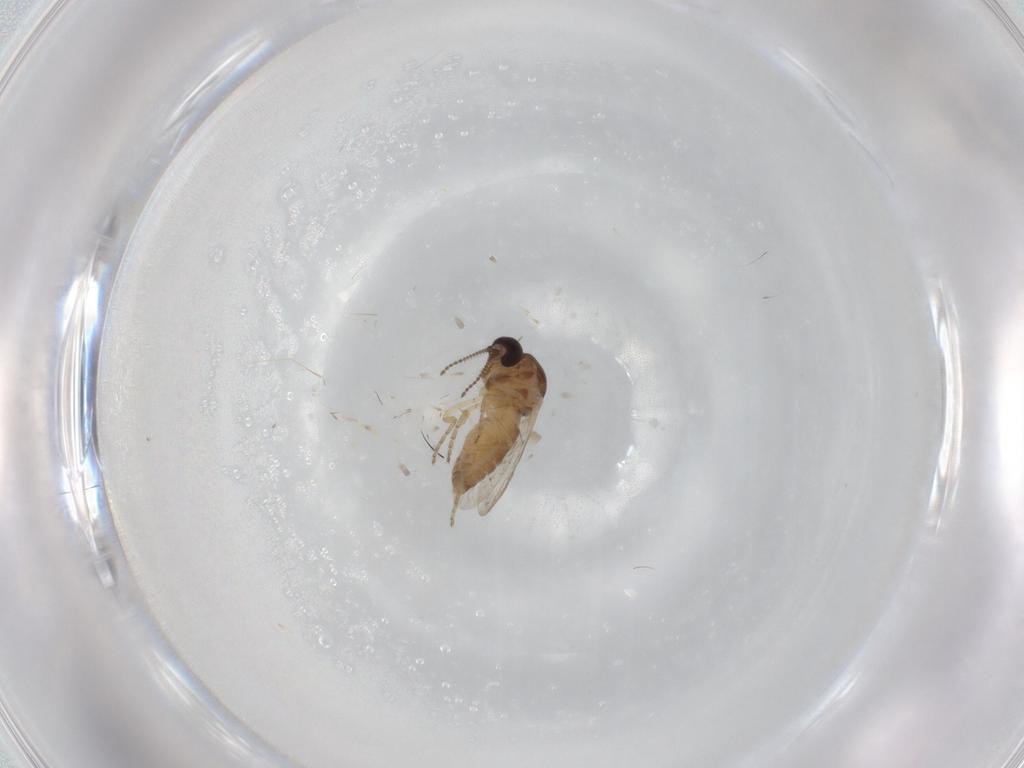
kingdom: Animalia
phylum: Arthropoda
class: Insecta
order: Diptera
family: Ceratopogonidae
